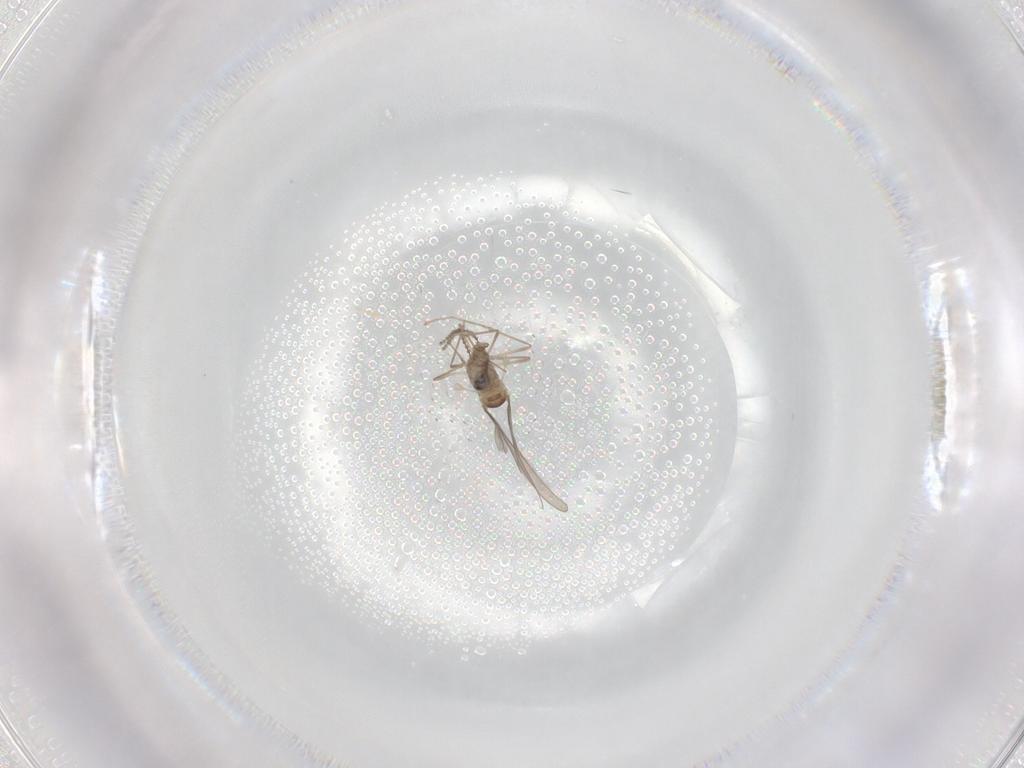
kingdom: Animalia
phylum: Arthropoda
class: Insecta
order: Diptera
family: Cecidomyiidae
